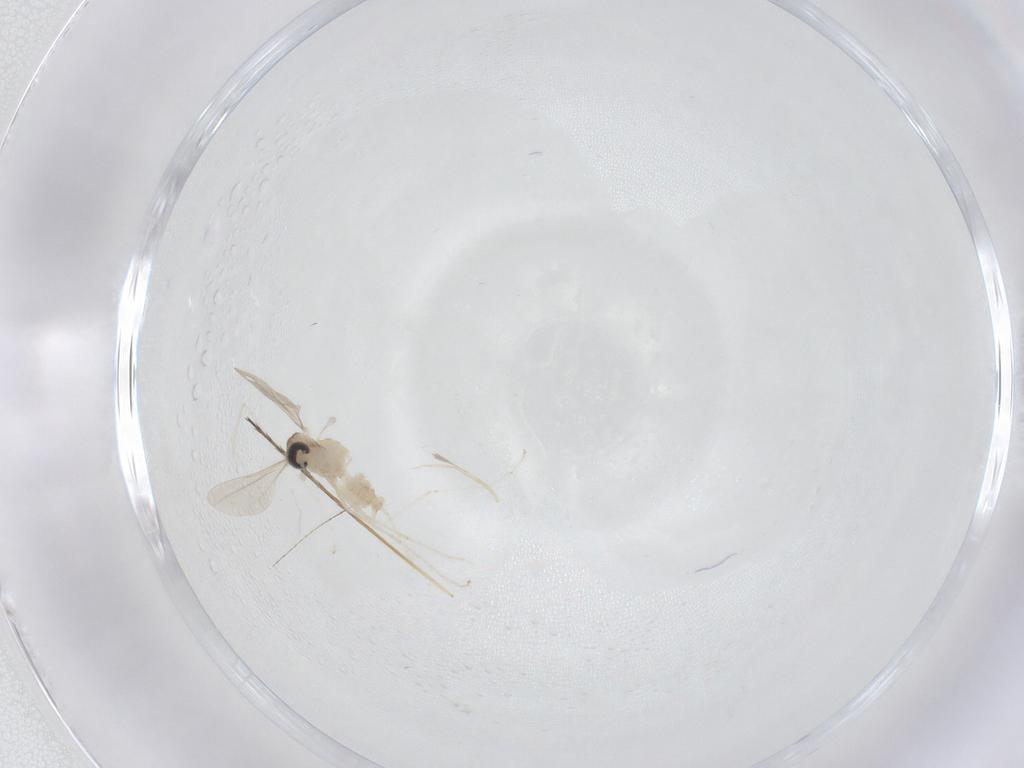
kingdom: Animalia
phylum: Arthropoda
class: Insecta
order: Diptera
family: Cecidomyiidae
